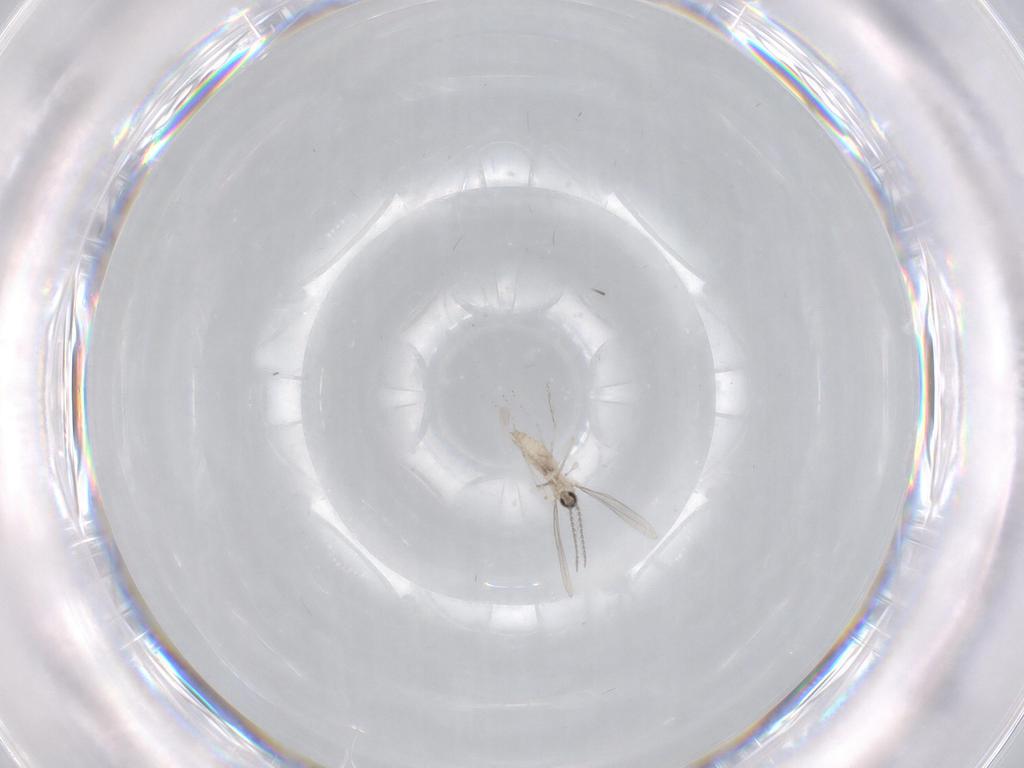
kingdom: Animalia
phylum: Arthropoda
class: Insecta
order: Diptera
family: Cecidomyiidae
